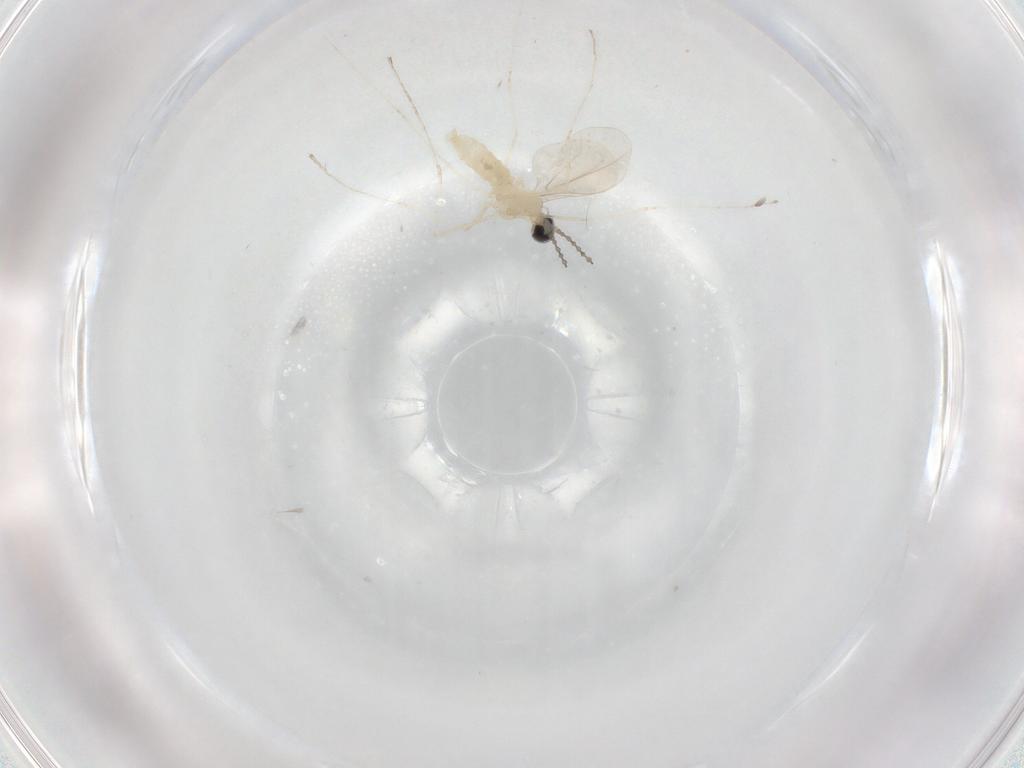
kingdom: Animalia
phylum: Arthropoda
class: Insecta
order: Diptera
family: Cecidomyiidae
